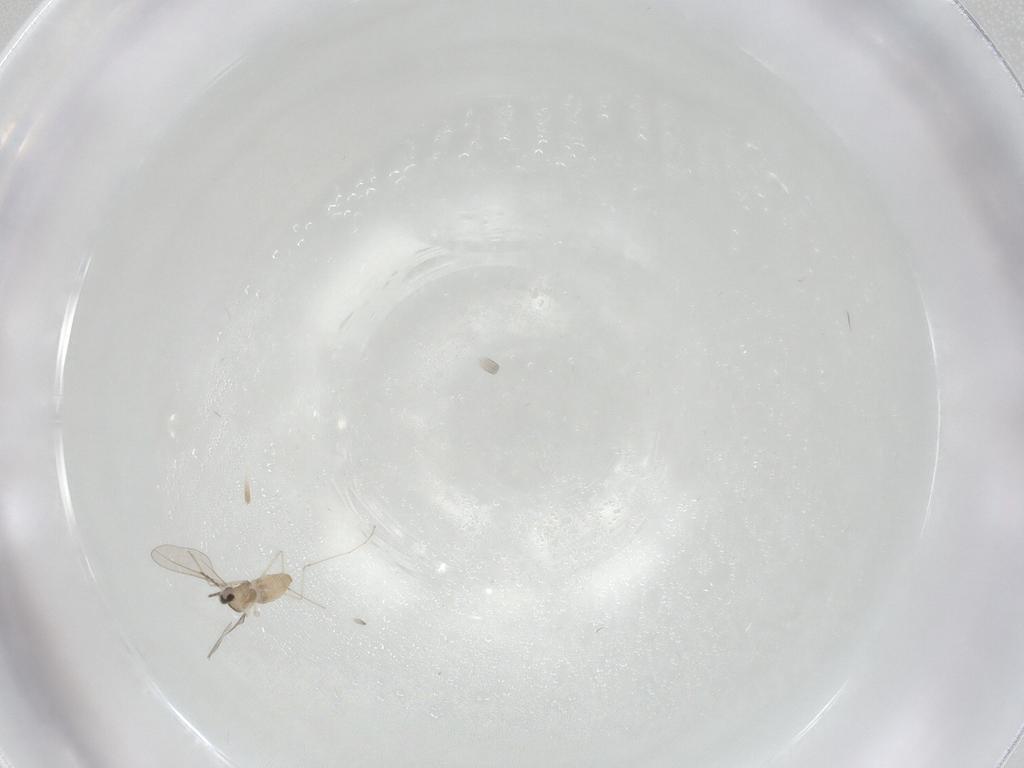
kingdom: Animalia
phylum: Arthropoda
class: Insecta
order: Diptera
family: Cecidomyiidae
